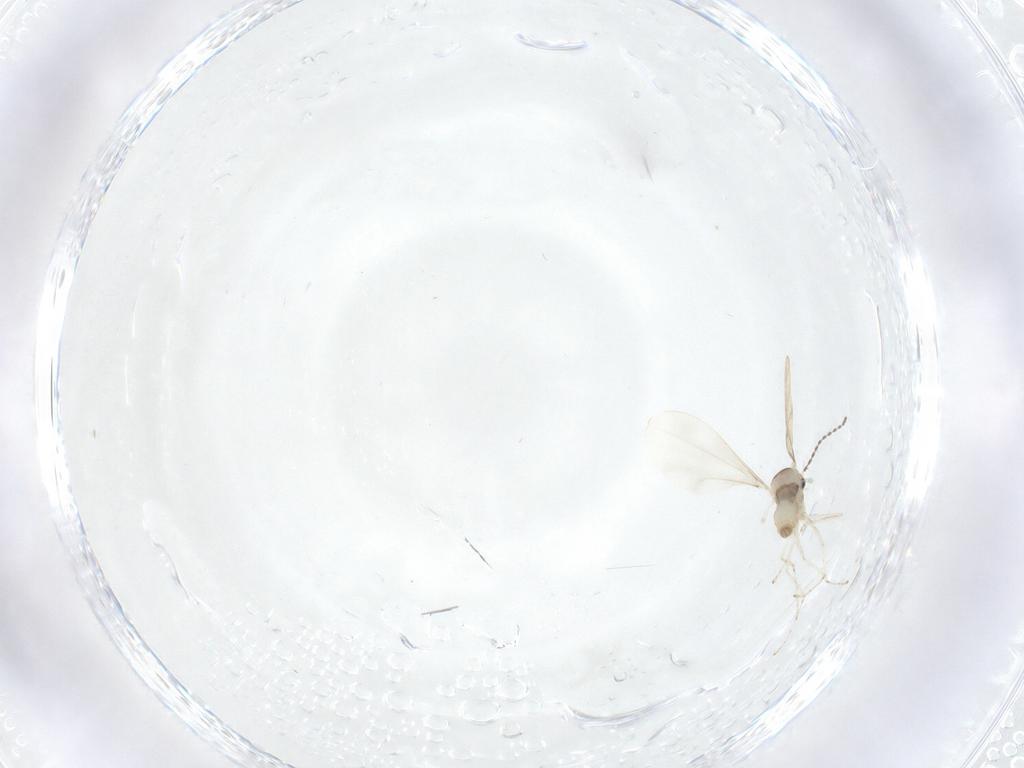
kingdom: Animalia
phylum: Arthropoda
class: Insecta
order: Diptera
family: Cecidomyiidae
